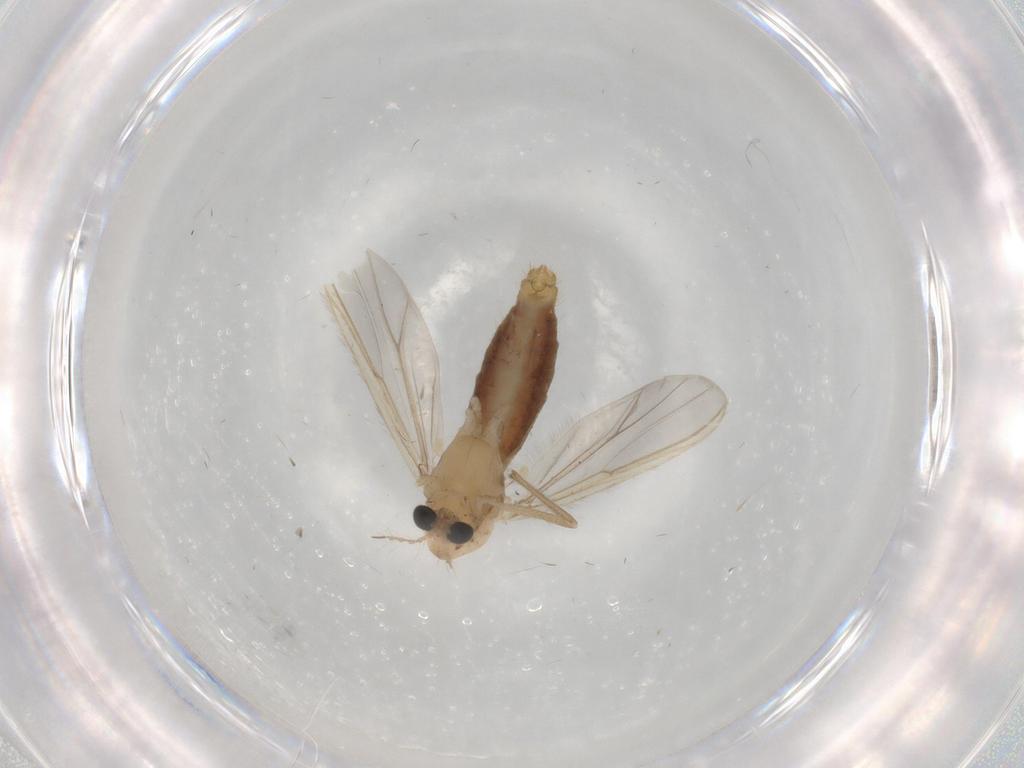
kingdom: Animalia
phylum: Arthropoda
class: Insecta
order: Diptera
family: Chironomidae
